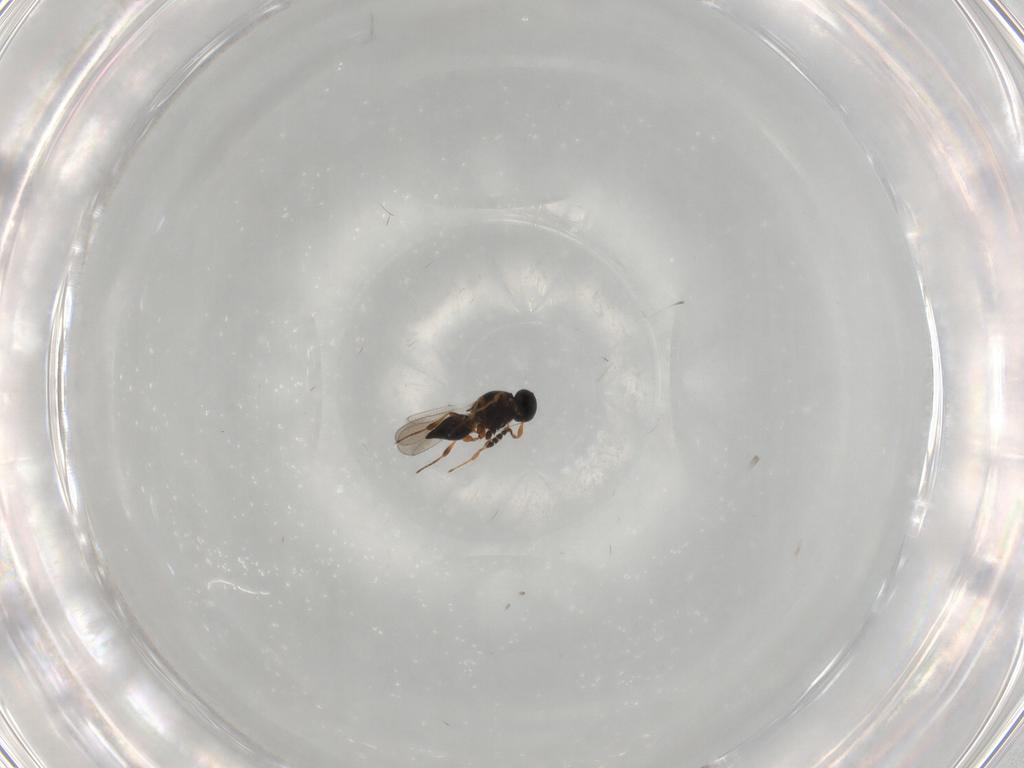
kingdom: Animalia
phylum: Arthropoda
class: Insecta
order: Hymenoptera
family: Platygastridae
